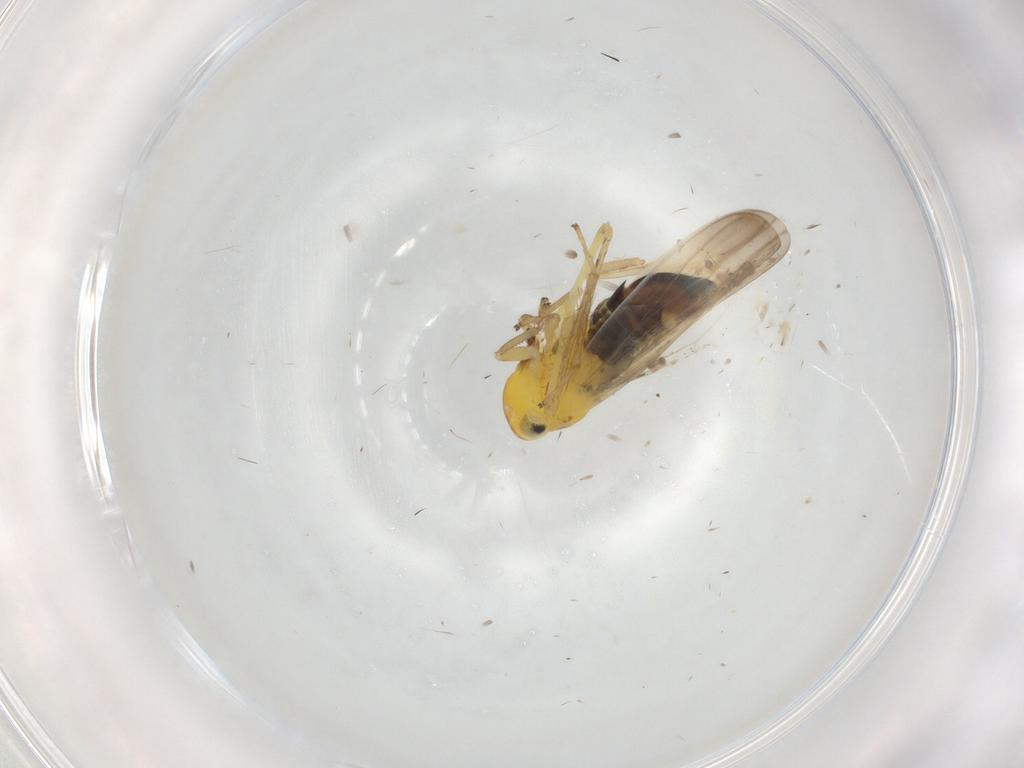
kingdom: Animalia
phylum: Arthropoda
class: Insecta
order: Hemiptera
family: Cicadellidae
